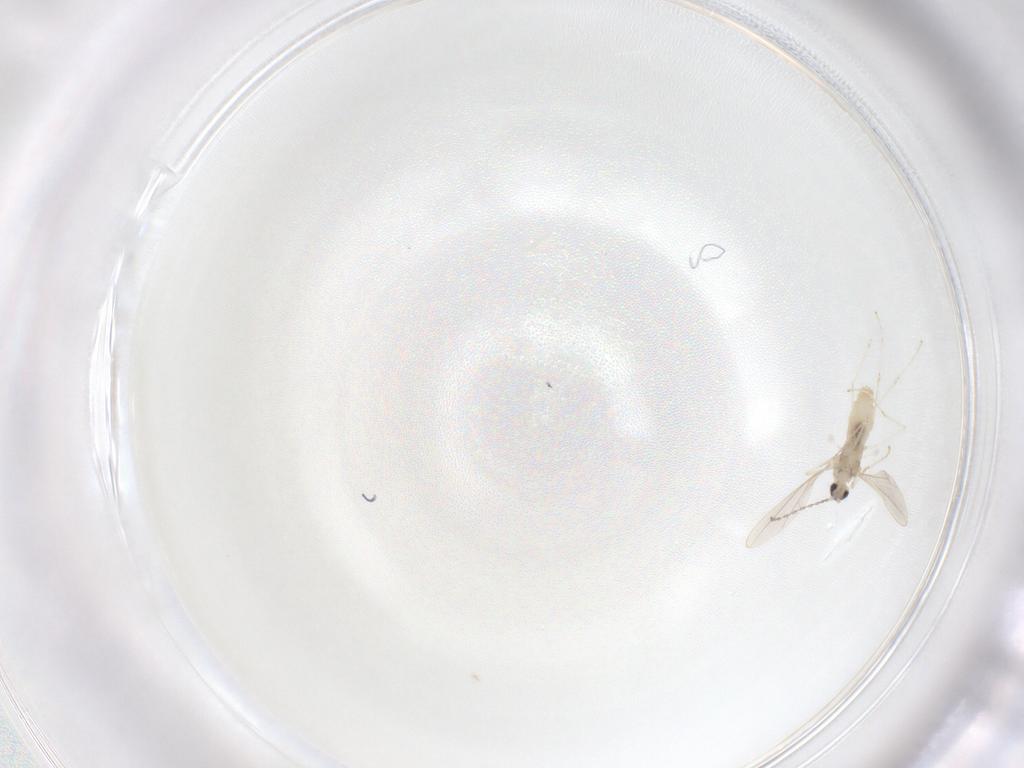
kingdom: Animalia
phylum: Arthropoda
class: Insecta
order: Diptera
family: Cecidomyiidae
